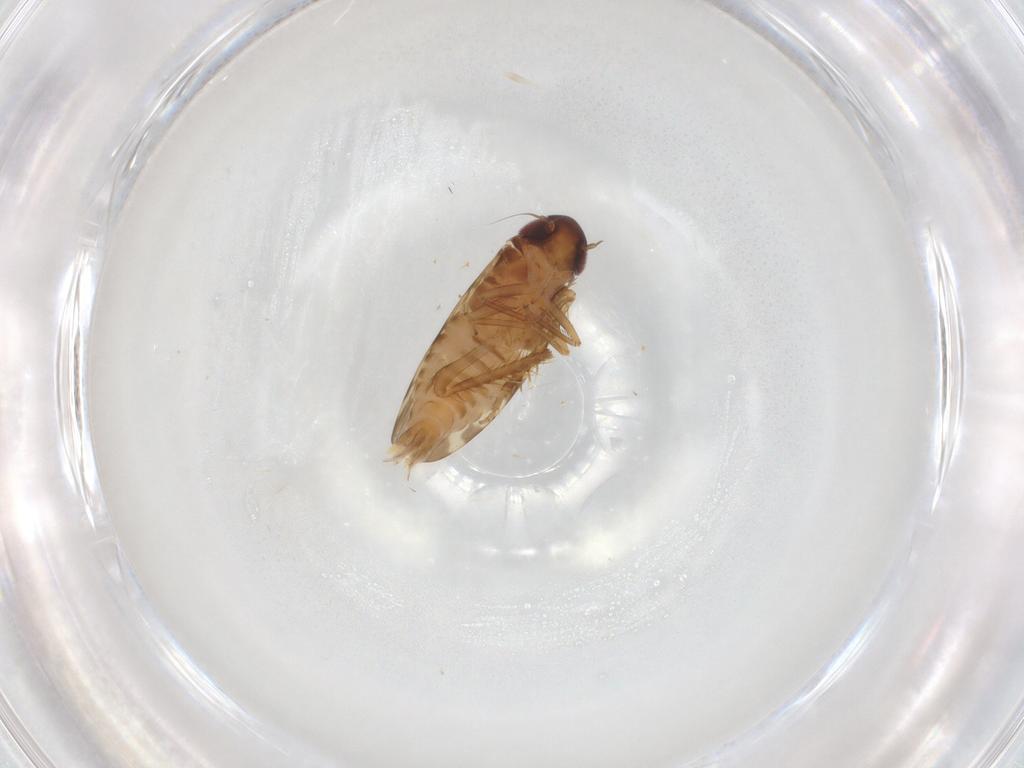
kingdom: Animalia
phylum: Arthropoda
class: Insecta
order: Hemiptera
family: Cicadellidae
